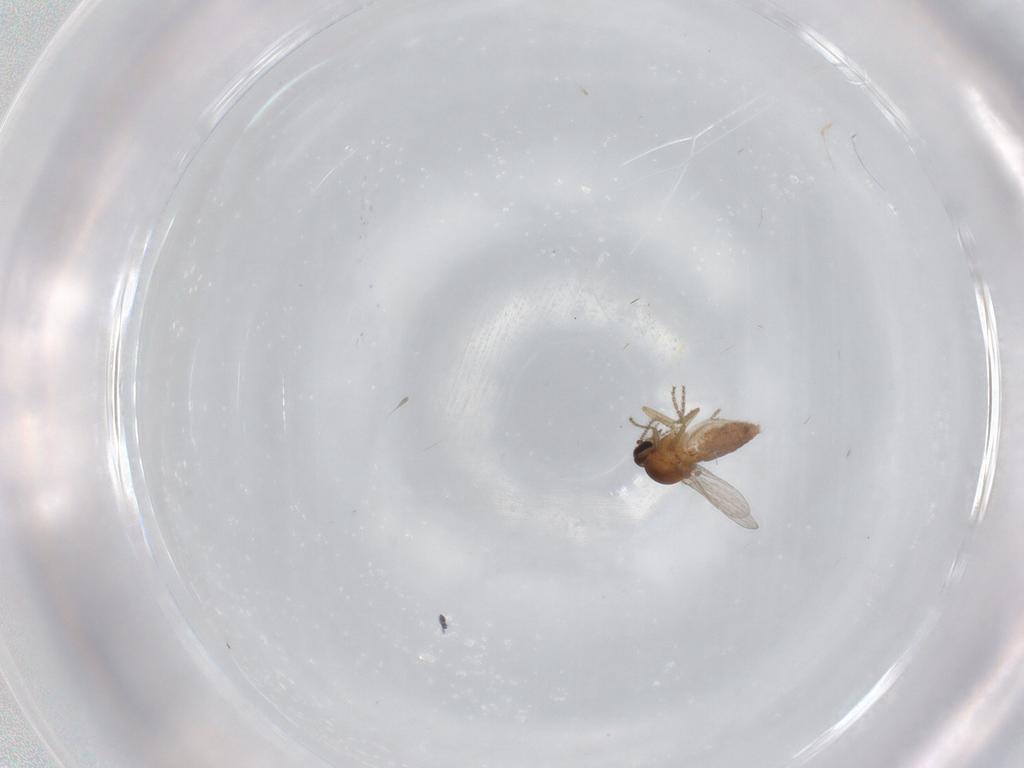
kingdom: Animalia
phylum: Arthropoda
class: Insecta
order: Diptera
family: Ceratopogonidae
